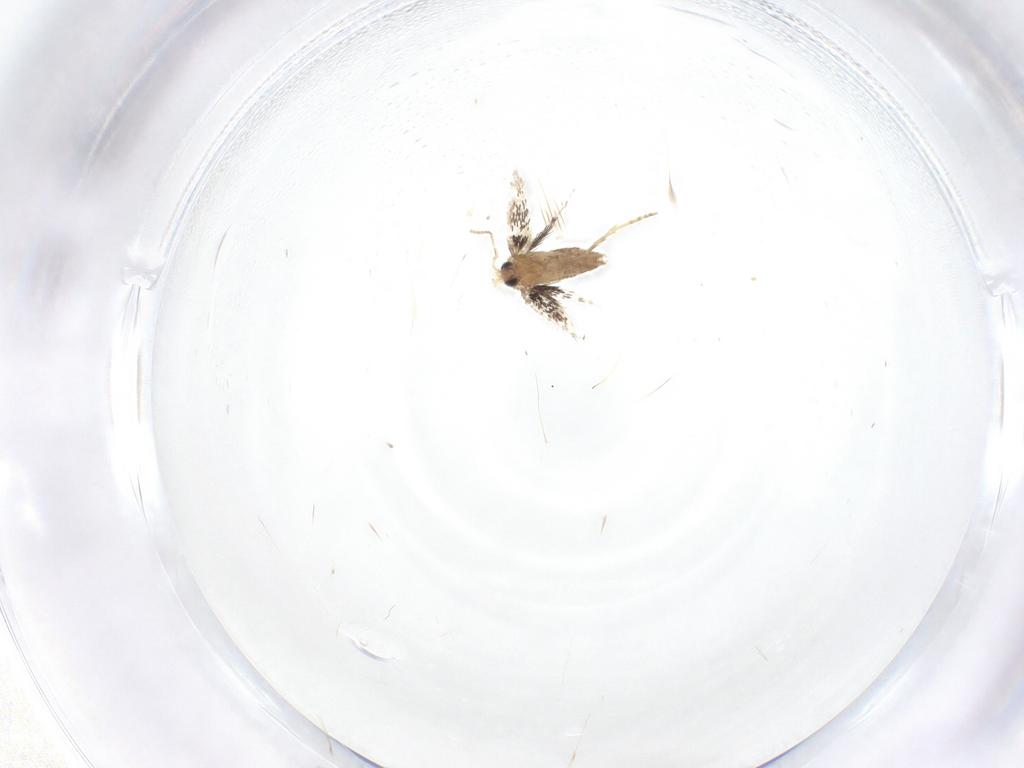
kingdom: Animalia
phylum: Arthropoda
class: Insecta
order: Lepidoptera
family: Nepticulidae
